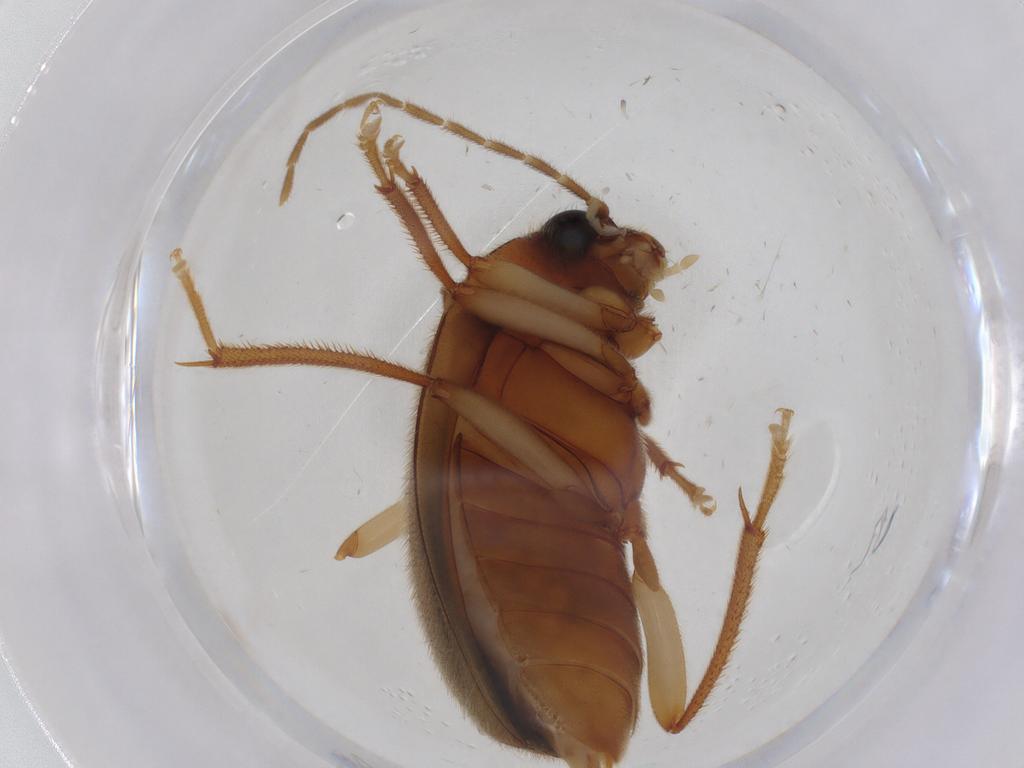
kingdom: Animalia
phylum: Arthropoda
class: Insecta
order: Coleoptera
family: Ptilodactylidae
